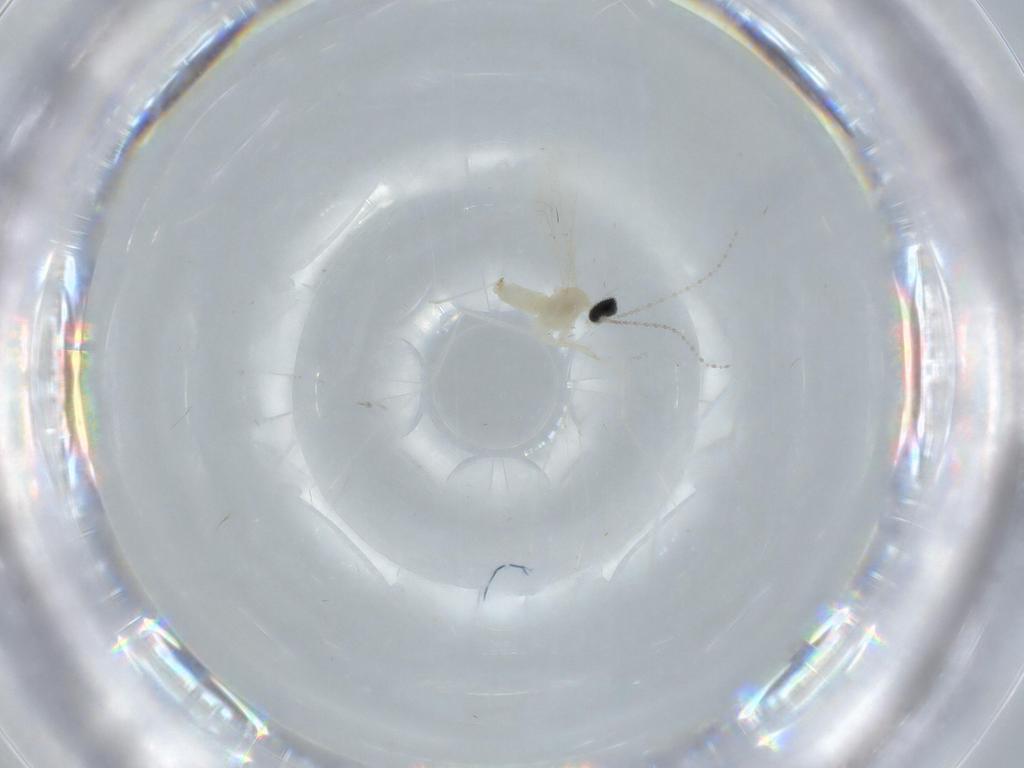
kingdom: Animalia
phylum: Arthropoda
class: Insecta
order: Diptera
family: Cecidomyiidae
